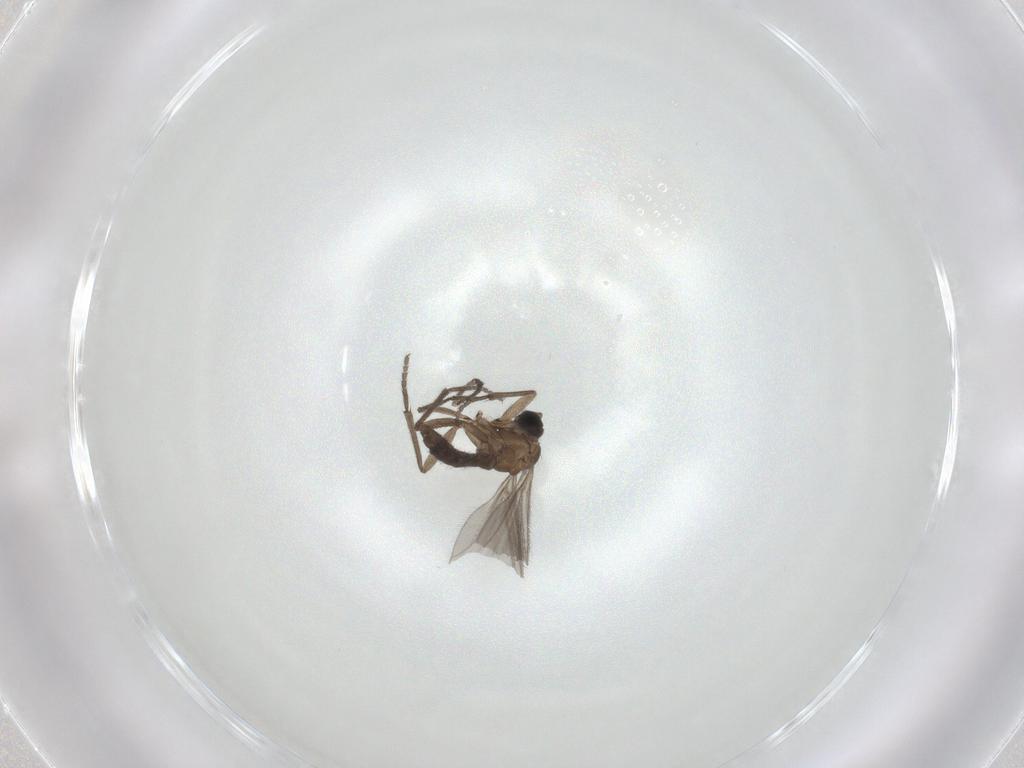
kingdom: Animalia
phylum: Arthropoda
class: Insecta
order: Diptera
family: Sciaridae
